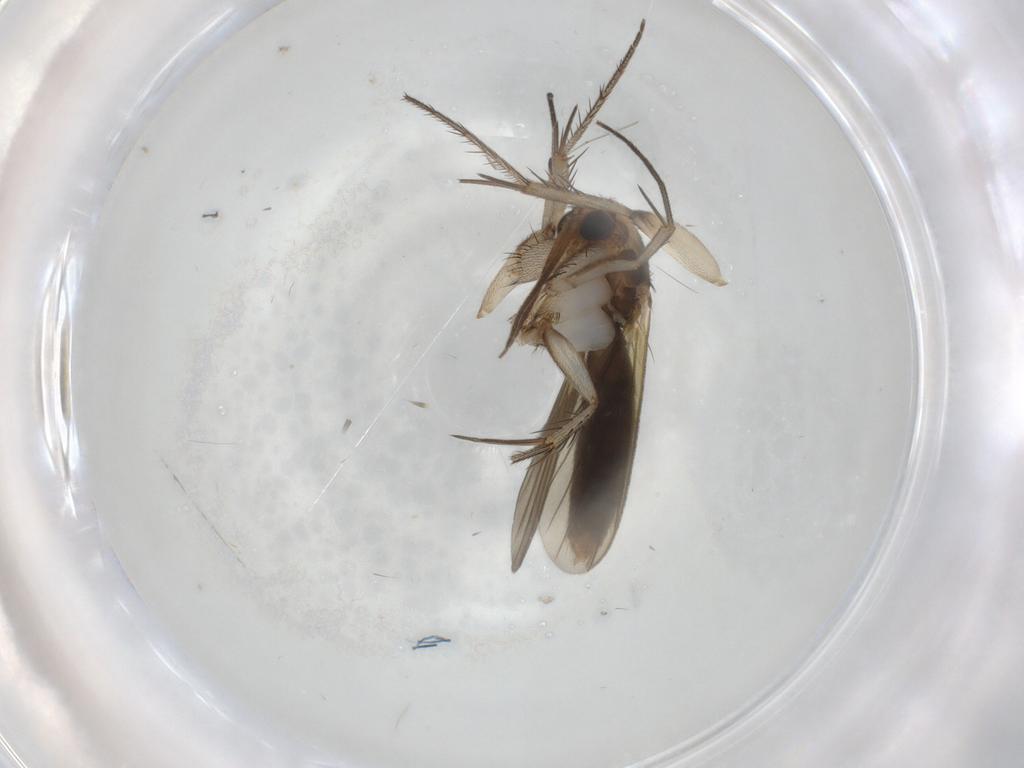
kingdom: Animalia
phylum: Arthropoda
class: Insecta
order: Diptera
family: Mycetophilidae
